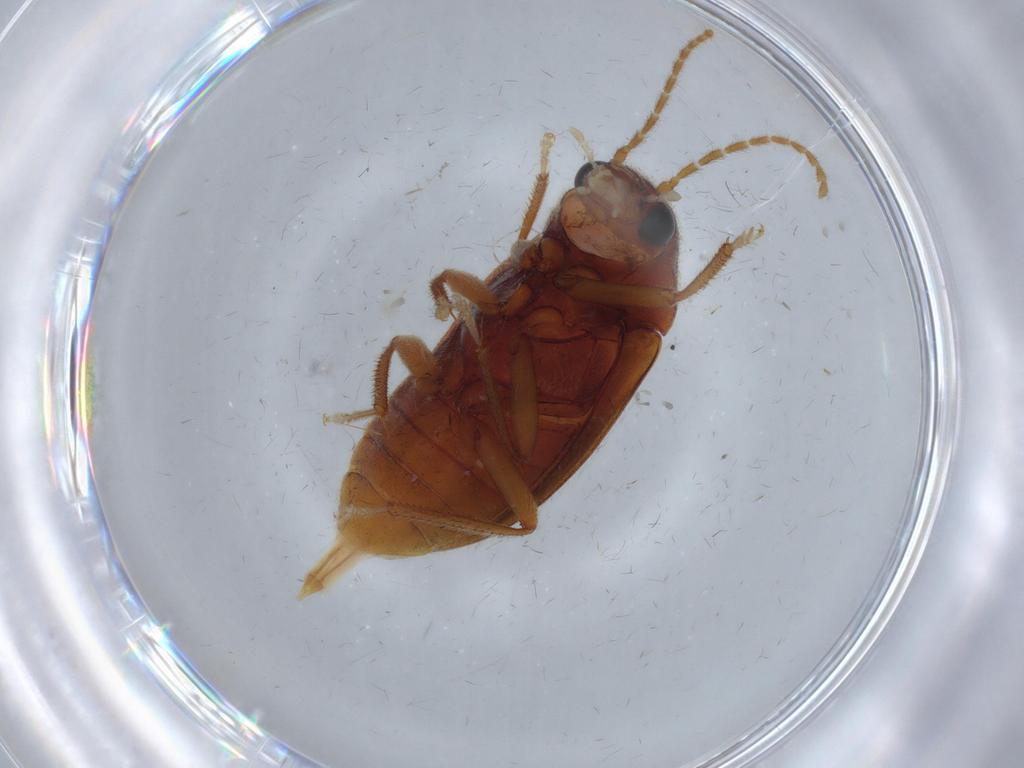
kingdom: Animalia
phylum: Arthropoda
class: Insecta
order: Coleoptera
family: Ptilodactylidae
